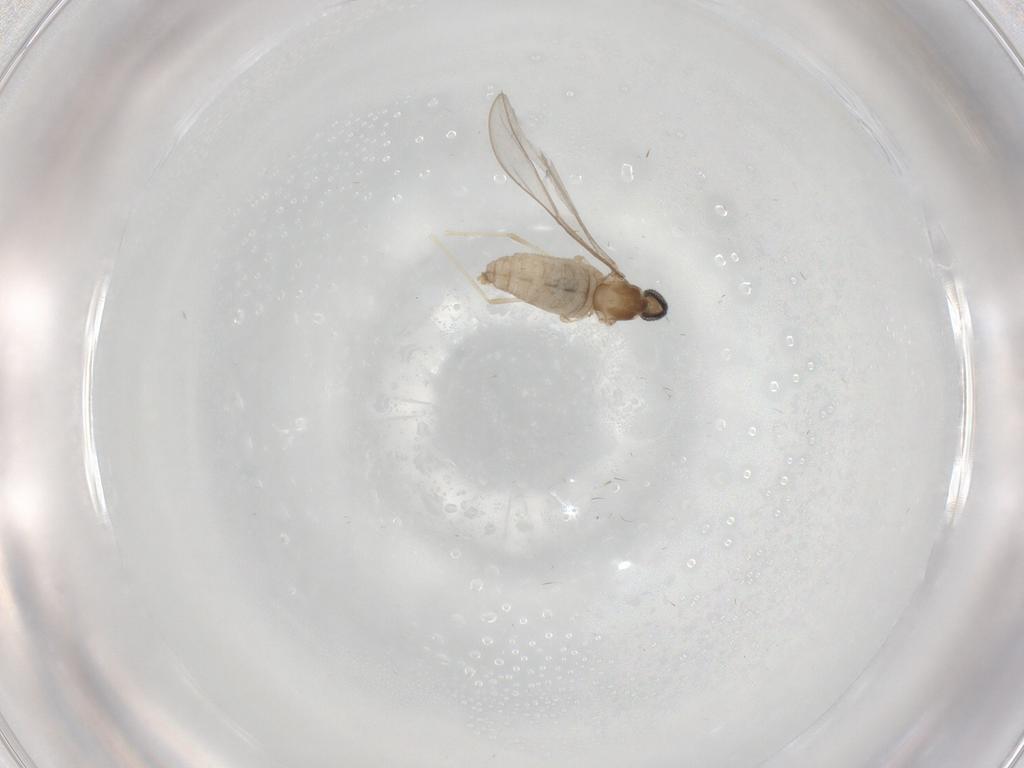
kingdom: Animalia
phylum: Arthropoda
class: Insecta
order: Diptera
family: Cecidomyiidae
